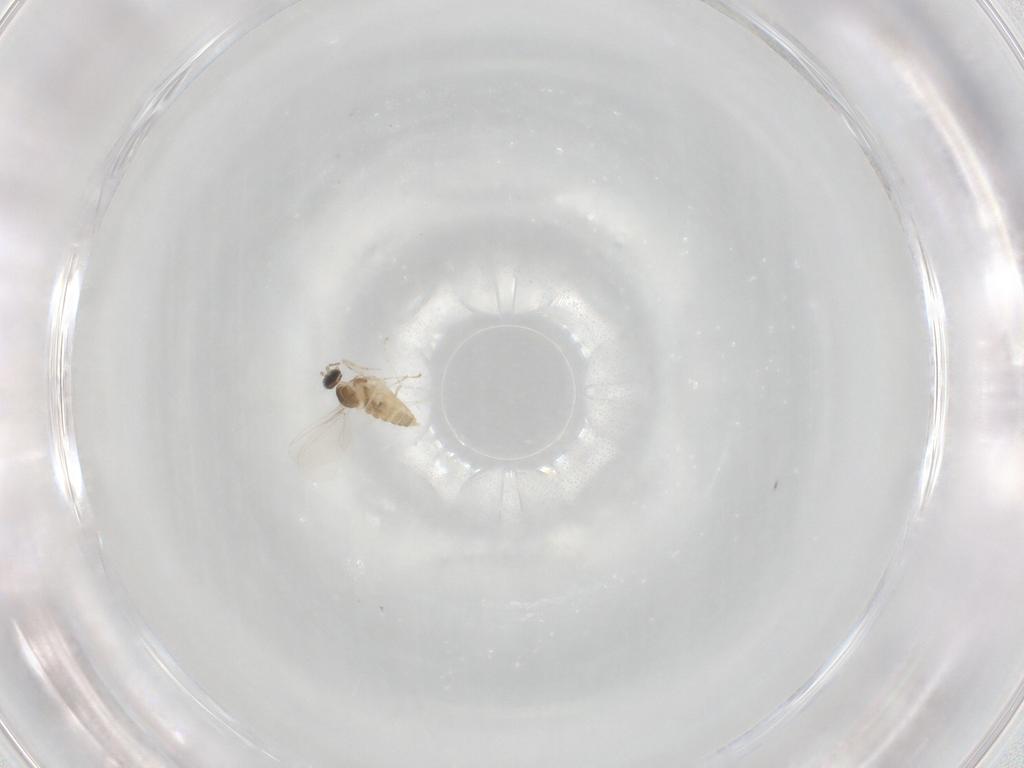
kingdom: Animalia
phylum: Arthropoda
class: Insecta
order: Diptera
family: Cecidomyiidae
